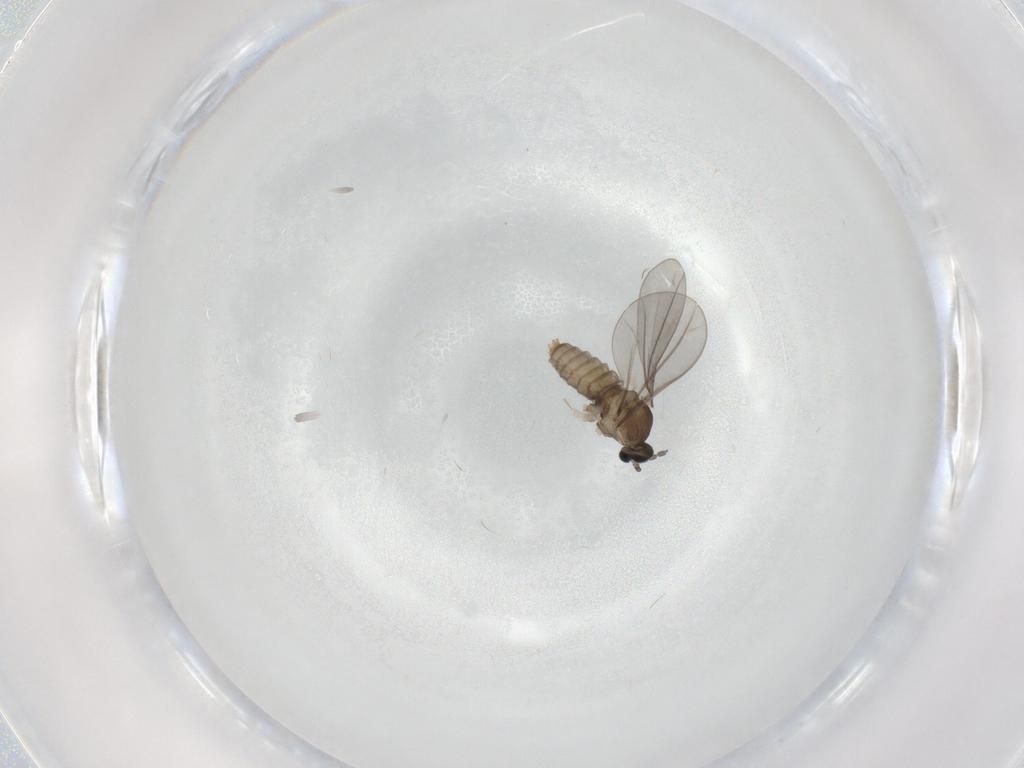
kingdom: Animalia
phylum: Arthropoda
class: Insecta
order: Diptera
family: Cecidomyiidae
